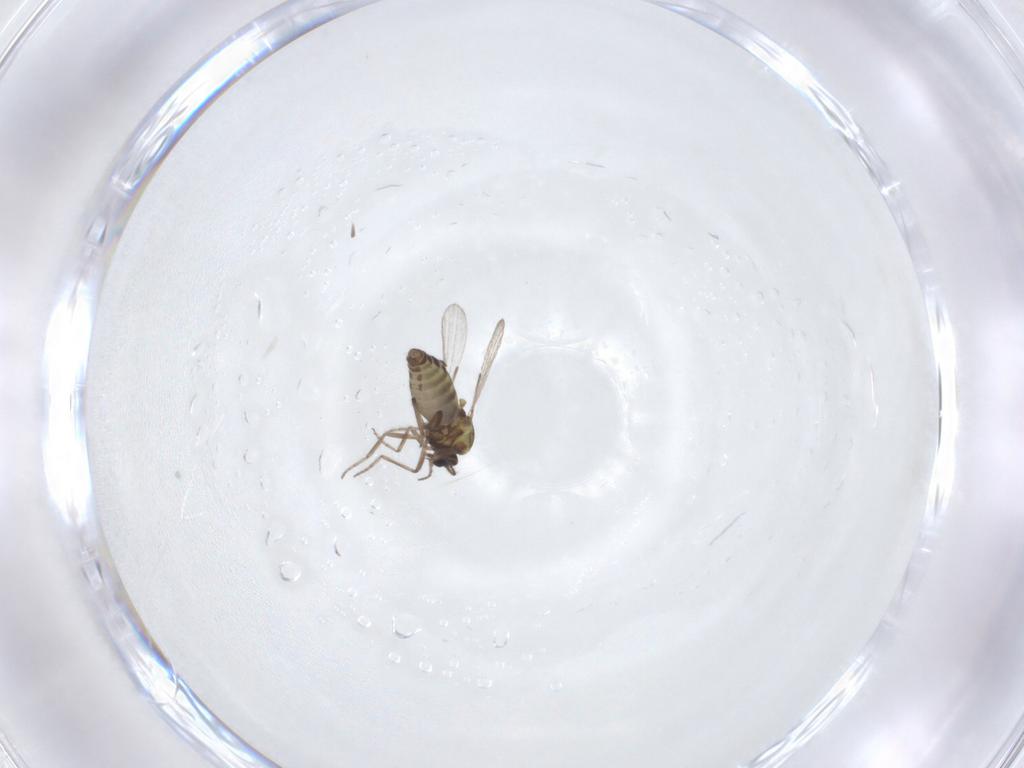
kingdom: Animalia
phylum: Arthropoda
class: Insecta
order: Diptera
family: Ceratopogonidae
